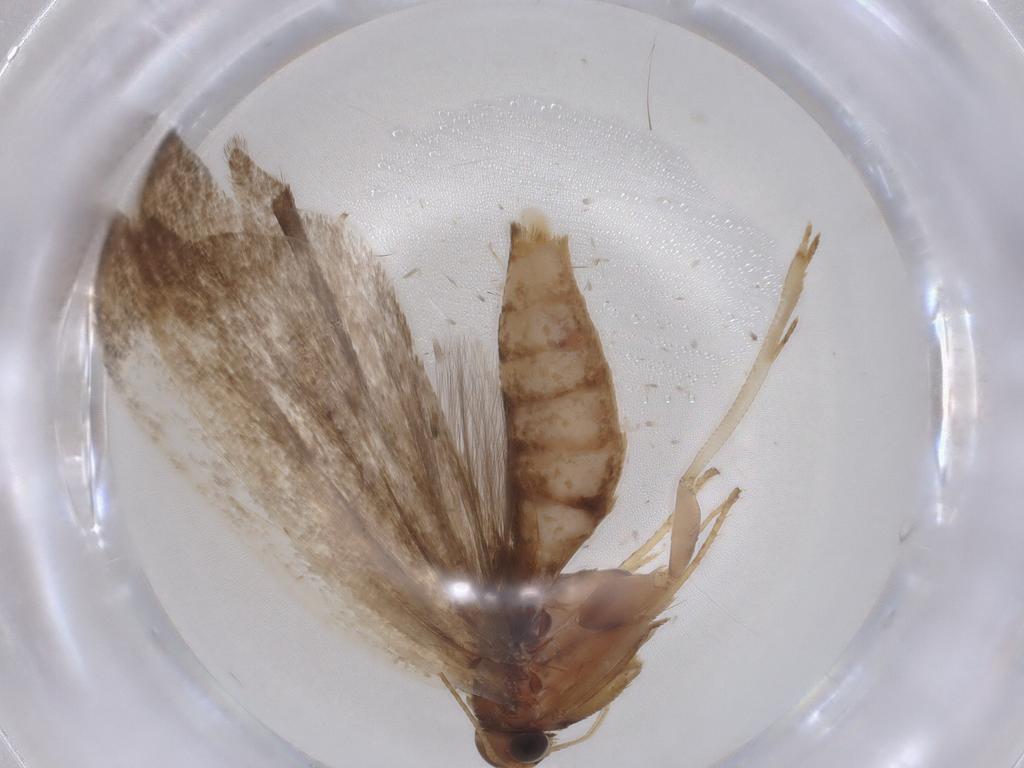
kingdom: Animalia
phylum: Arthropoda
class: Insecta
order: Lepidoptera
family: Gelechiidae
